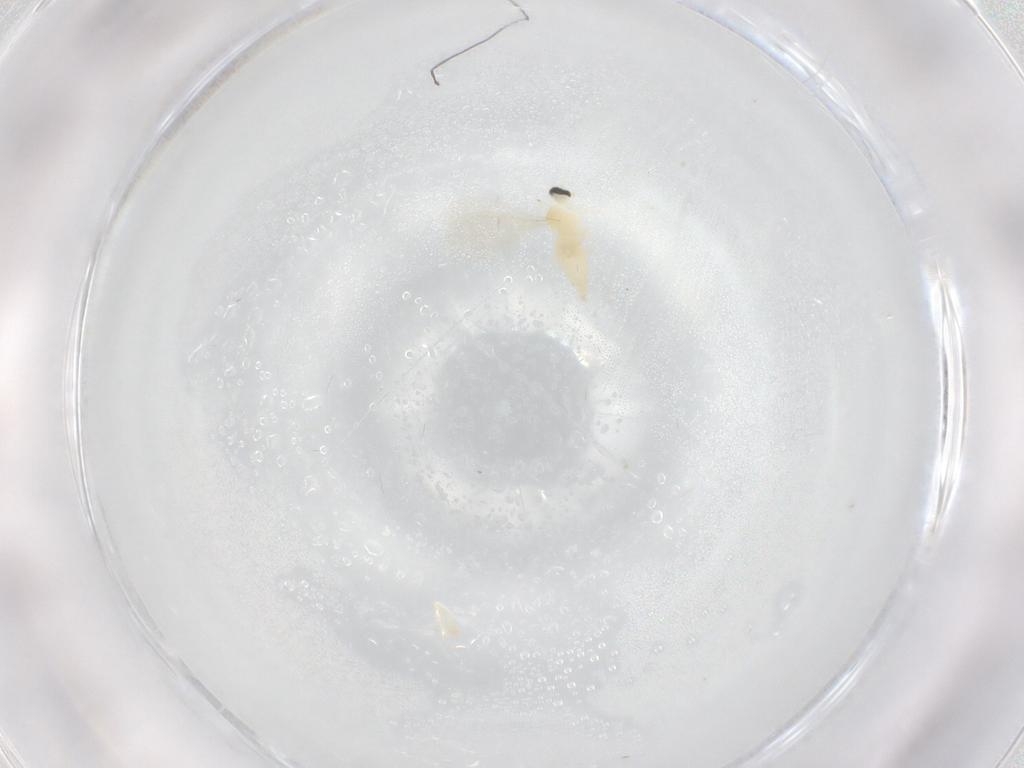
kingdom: Animalia
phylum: Arthropoda
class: Insecta
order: Diptera
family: Cecidomyiidae
